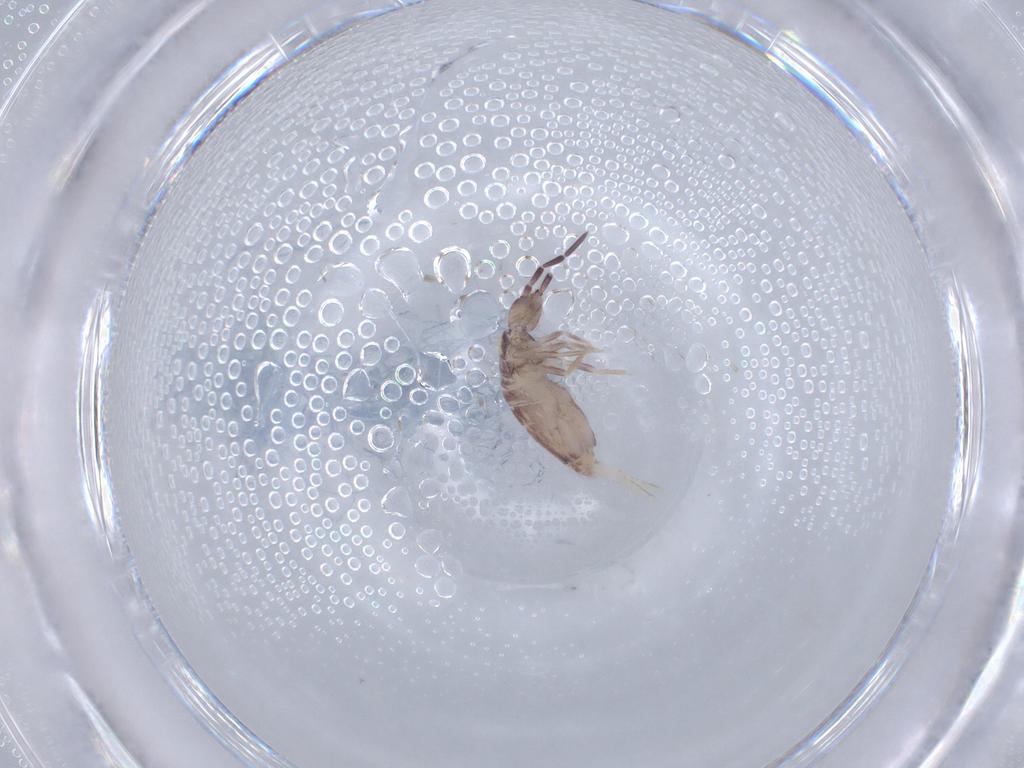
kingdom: Animalia
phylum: Arthropoda
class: Collembola
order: Poduromorpha
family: Hypogastruridae
